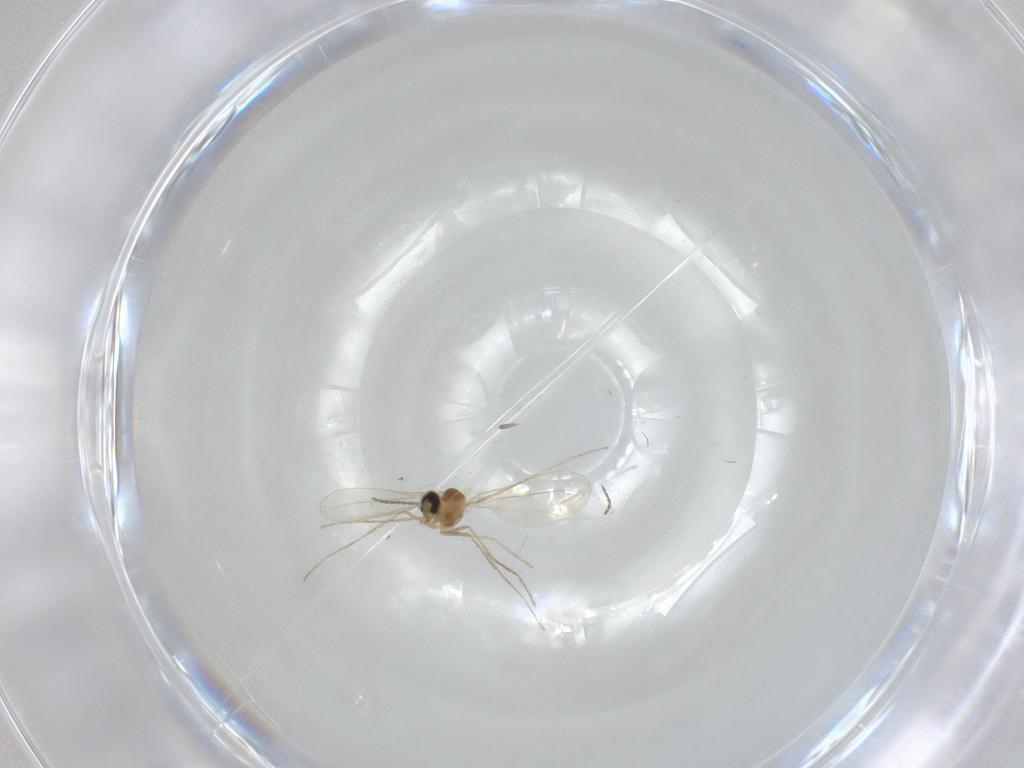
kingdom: Animalia
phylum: Arthropoda
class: Insecta
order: Diptera
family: Cecidomyiidae
